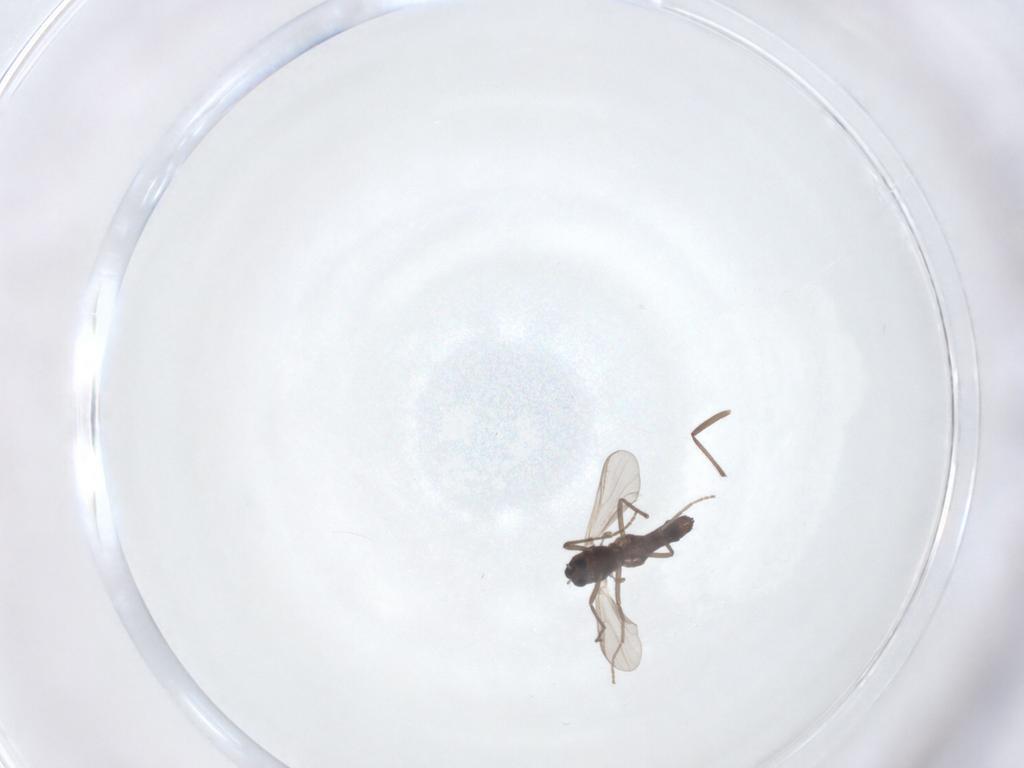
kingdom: Animalia
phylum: Arthropoda
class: Insecta
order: Diptera
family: Chironomidae
